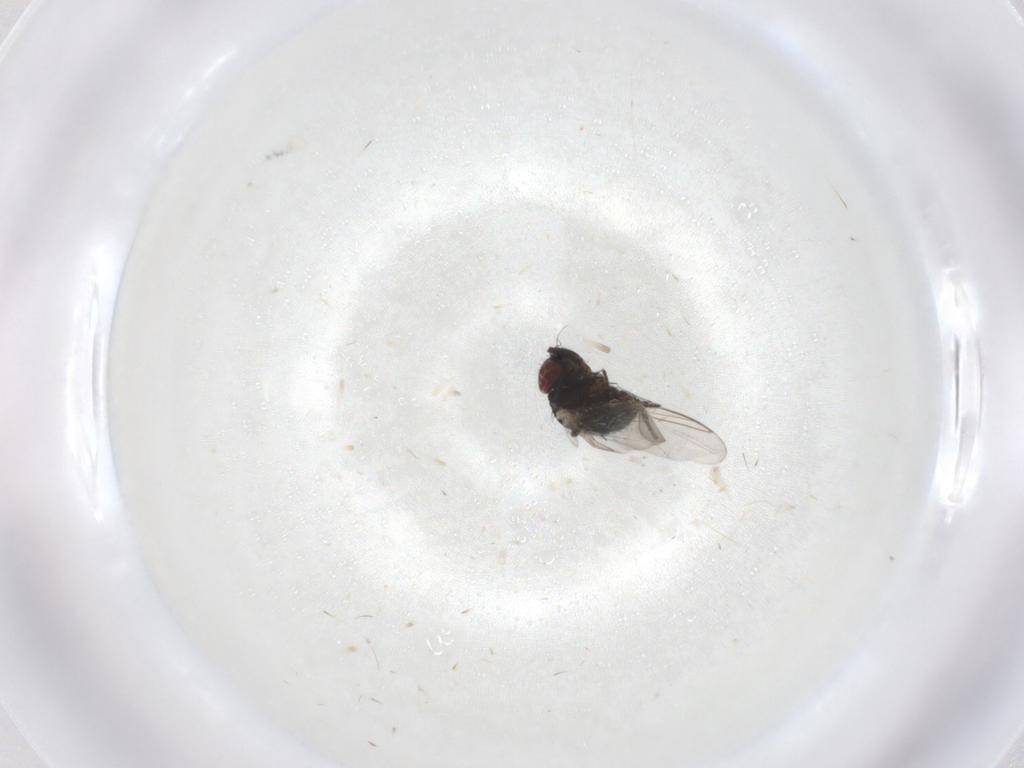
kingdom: Animalia
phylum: Arthropoda
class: Insecta
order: Diptera
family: Agromyzidae
